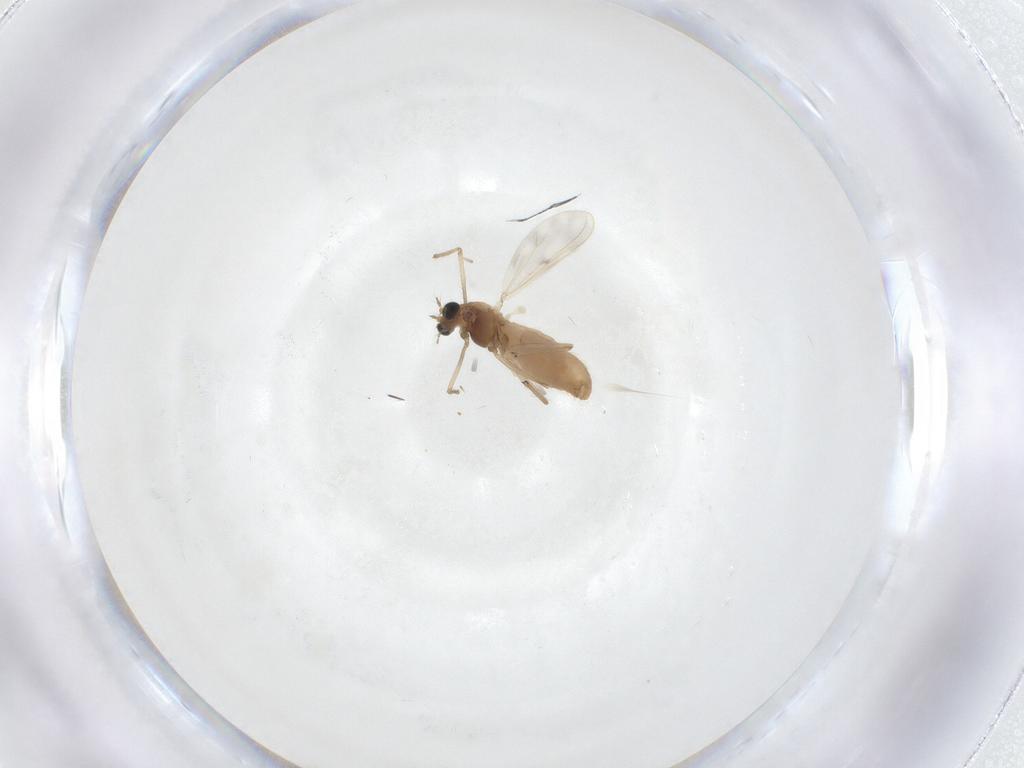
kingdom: Animalia
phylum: Arthropoda
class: Insecta
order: Diptera
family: Chironomidae
